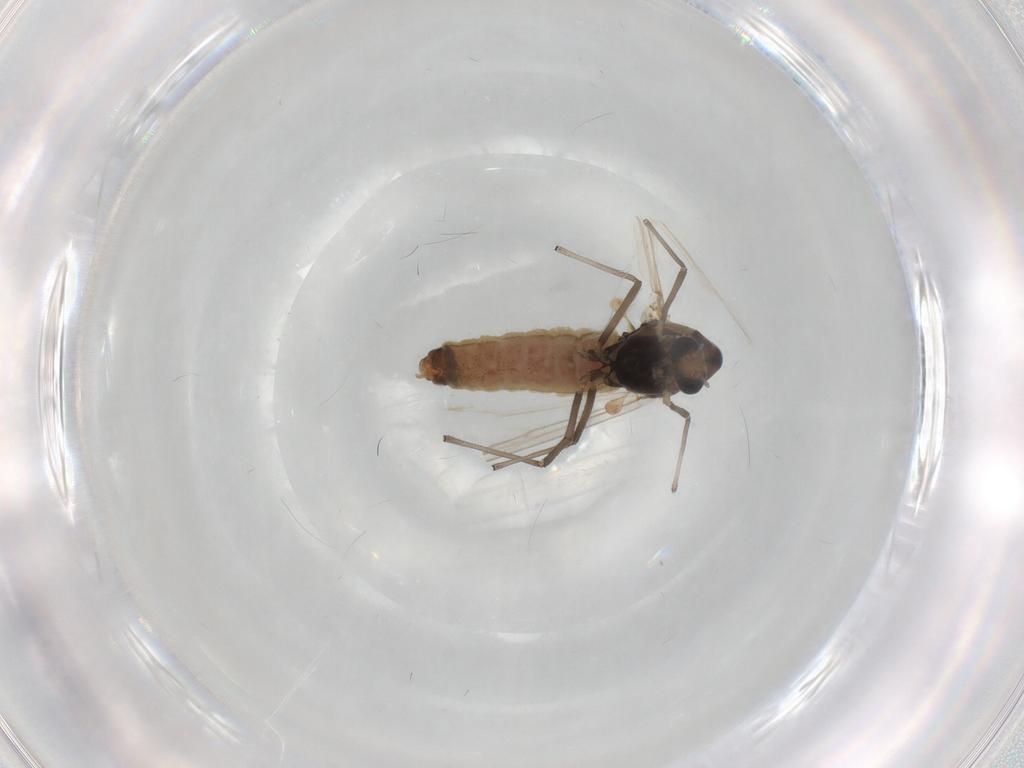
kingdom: Animalia
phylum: Arthropoda
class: Insecta
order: Diptera
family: Chironomidae
